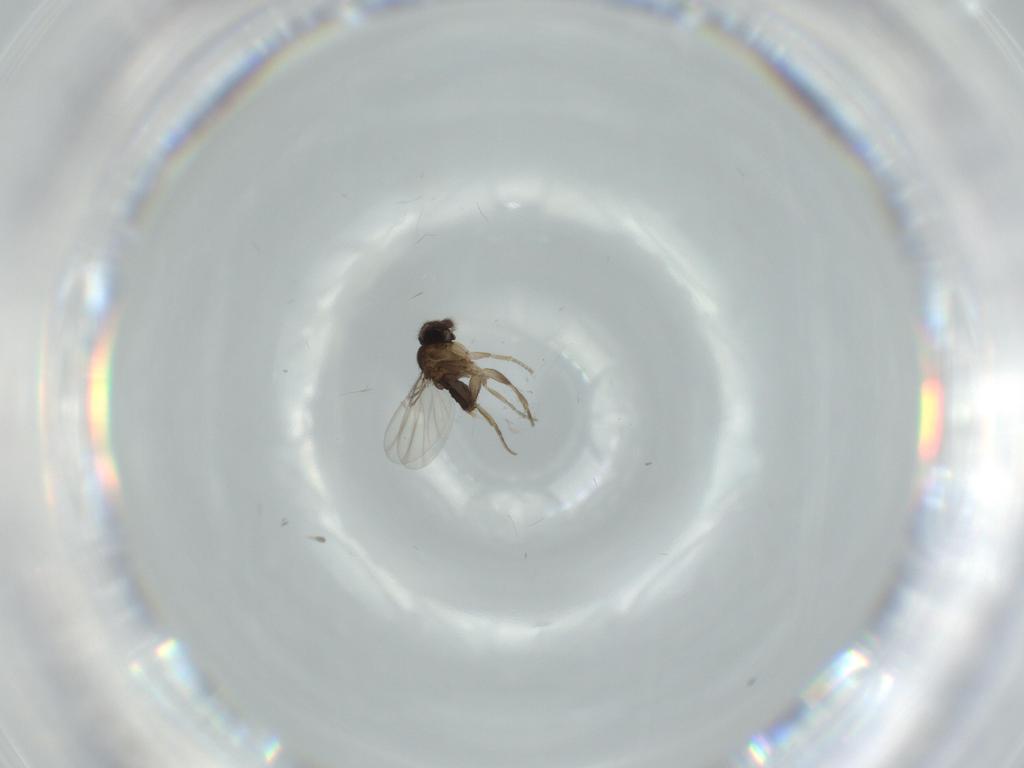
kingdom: Animalia
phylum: Arthropoda
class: Insecta
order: Diptera
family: Phoridae
